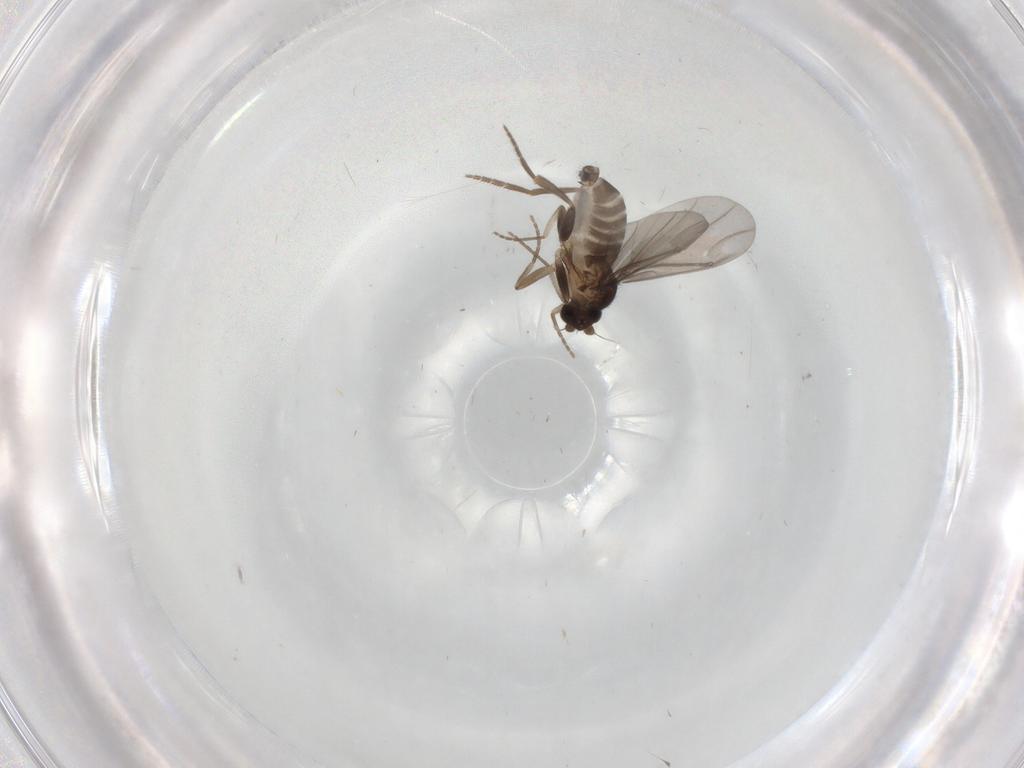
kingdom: Animalia
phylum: Arthropoda
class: Insecta
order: Diptera
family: Phoridae
